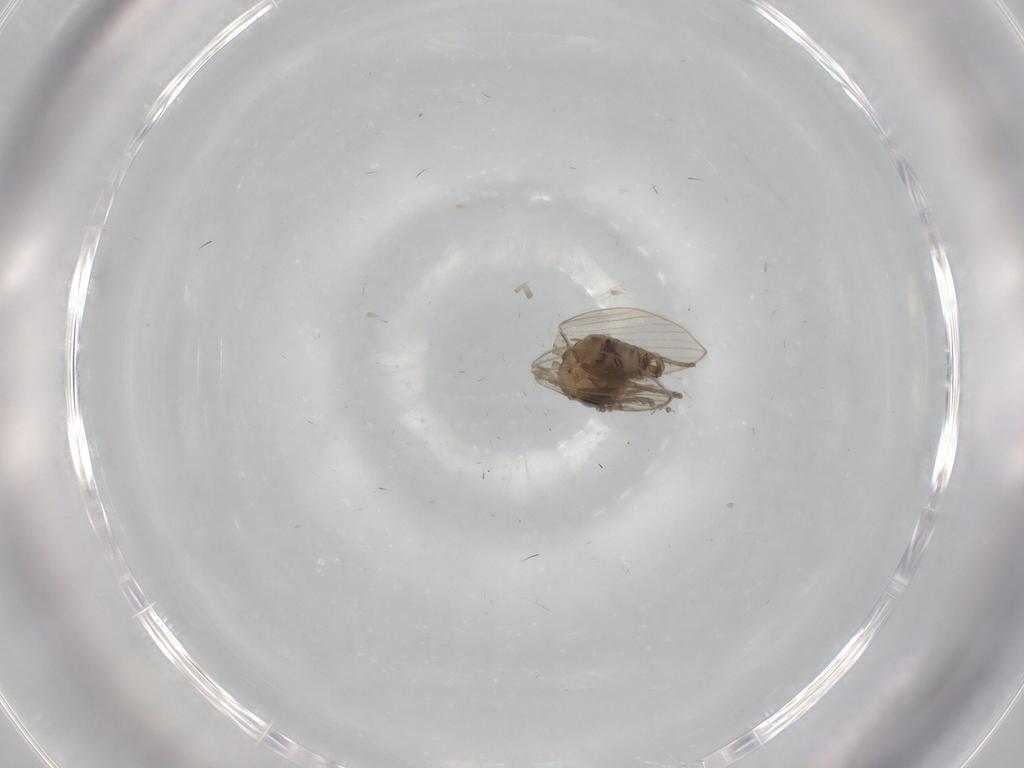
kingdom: Animalia
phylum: Arthropoda
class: Insecta
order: Diptera
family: Psychodidae
